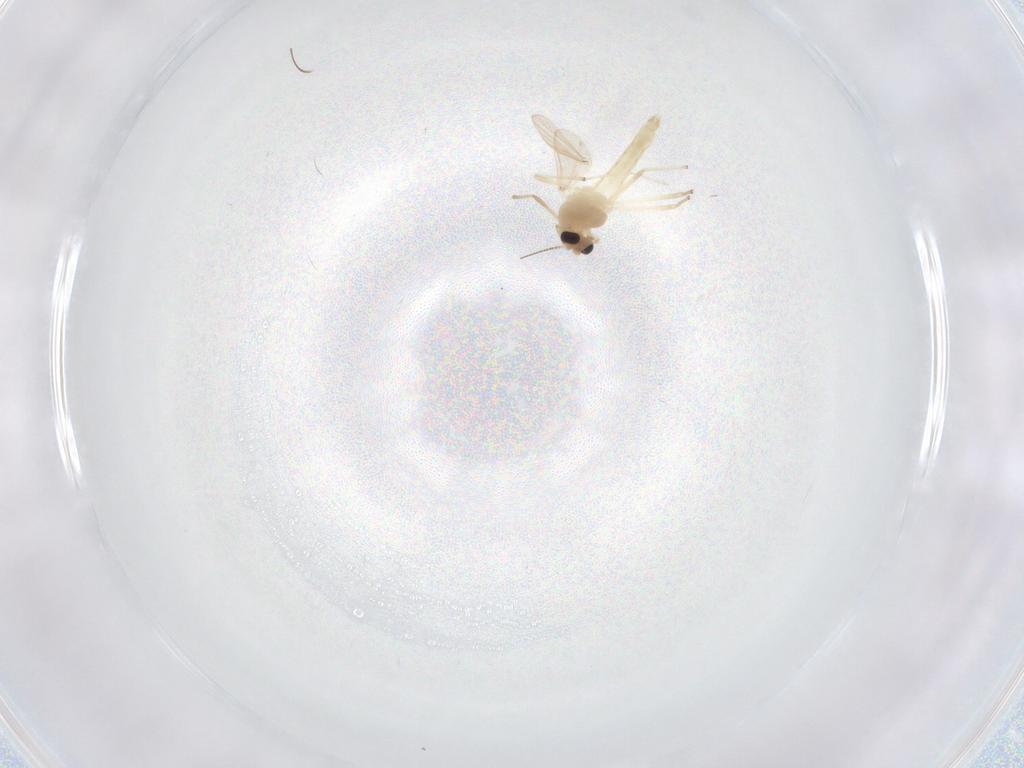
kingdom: Animalia
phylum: Arthropoda
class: Insecta
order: Diptera
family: Chironomidae
